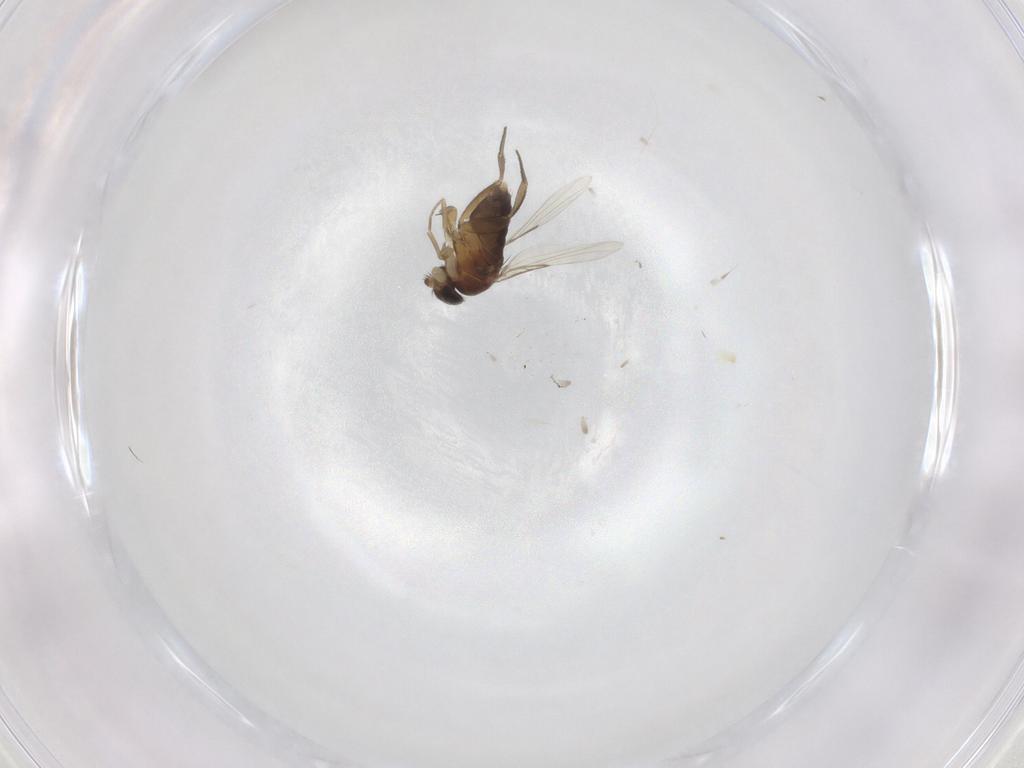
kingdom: Animalia
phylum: Arthropoda
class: Insecta
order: Diptera
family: Phoridae
